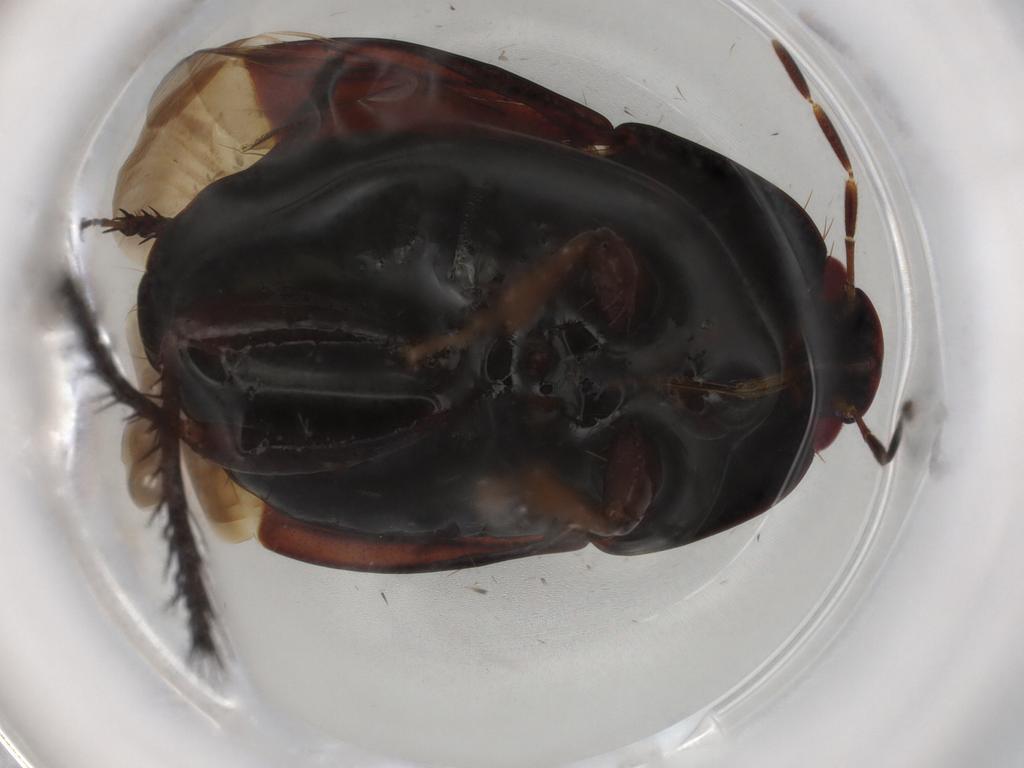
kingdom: Animalia
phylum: Arthropoda
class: Insecta
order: Hemiptera
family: Cydnidae
